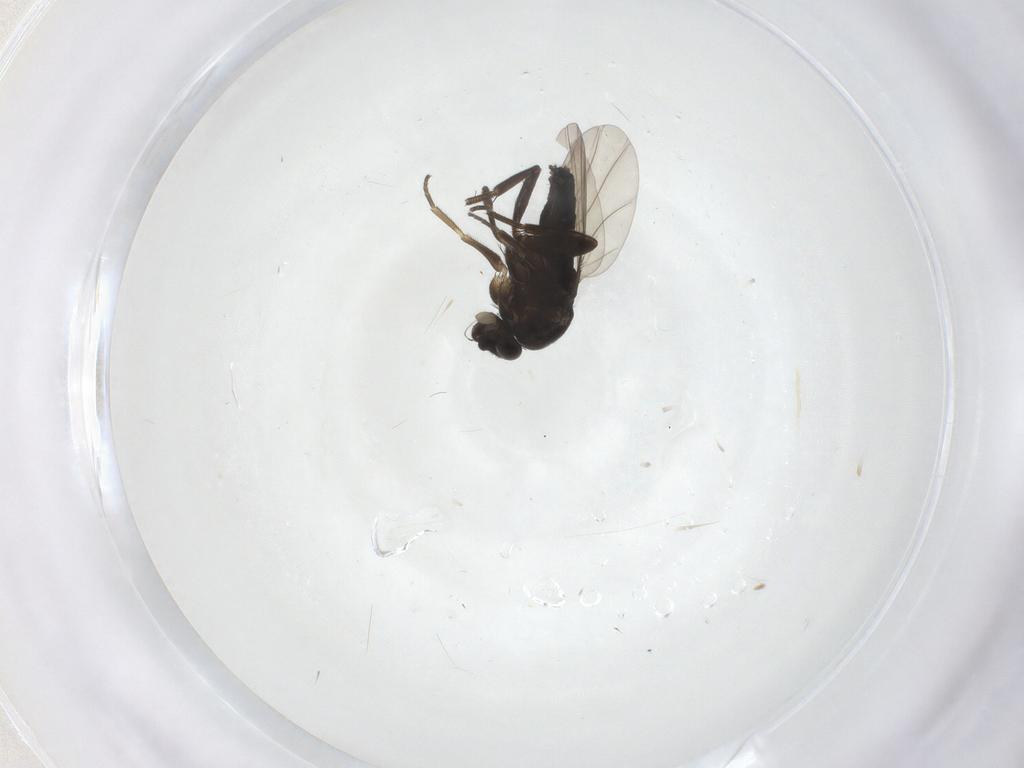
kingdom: Animalia
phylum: Arthropoda
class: Insecta
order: Diptera
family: Phoridae
